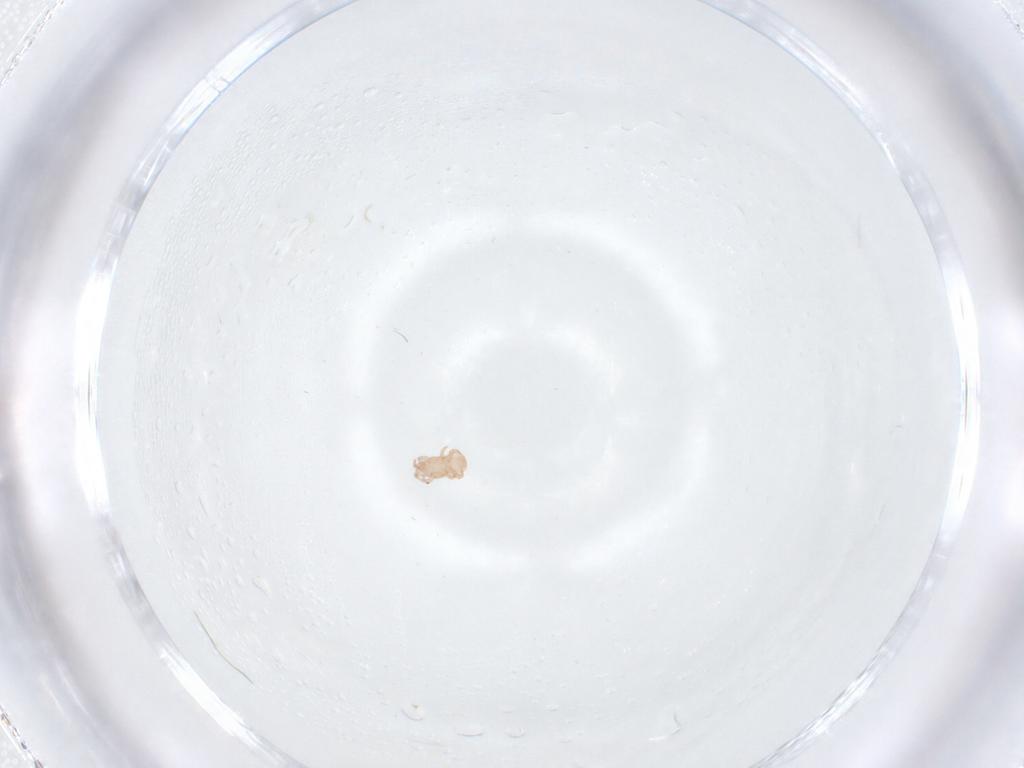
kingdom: Animalia
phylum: Arthropoda
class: Arachnida
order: Mesostigmata
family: Digamasellidae
